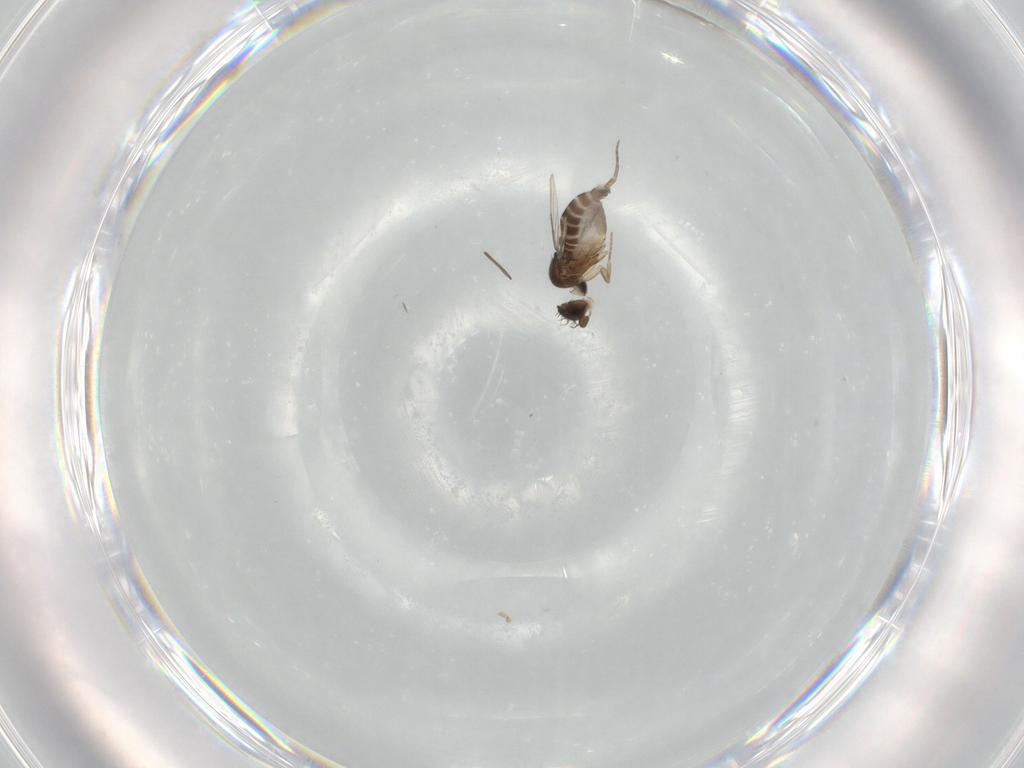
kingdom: Animalia
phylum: Arthropoda
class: Insecta
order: Diptera
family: Phoridae
